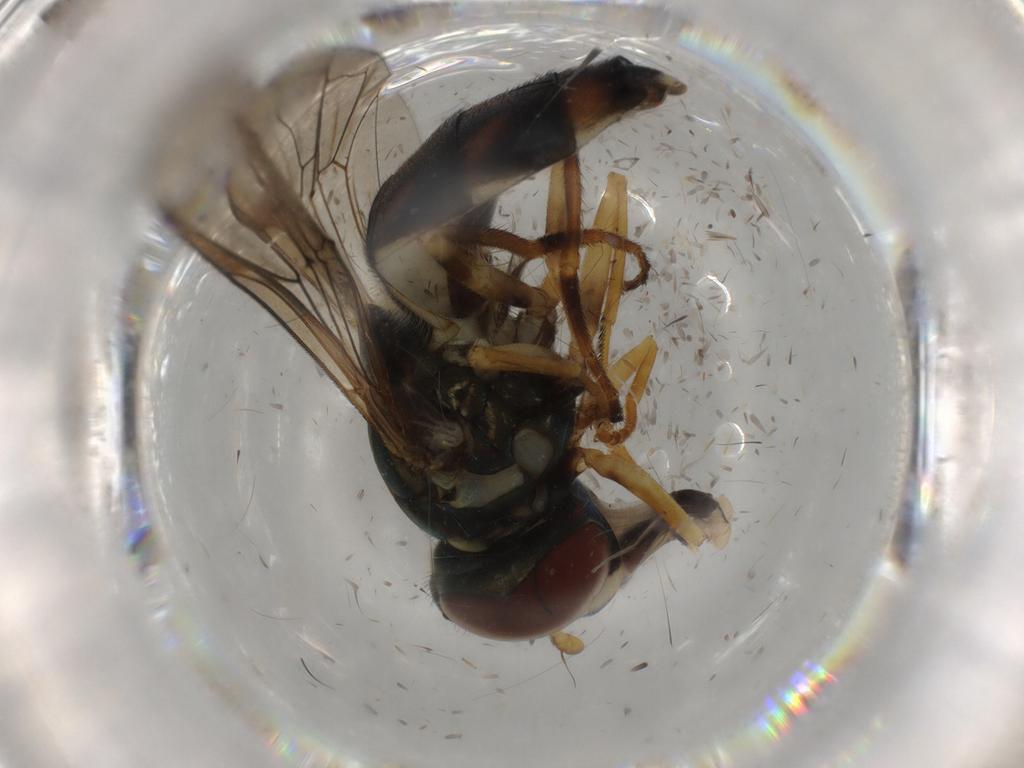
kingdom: Animalia
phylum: Arthropoda
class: Insecta
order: Diptera
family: Syrphidae
